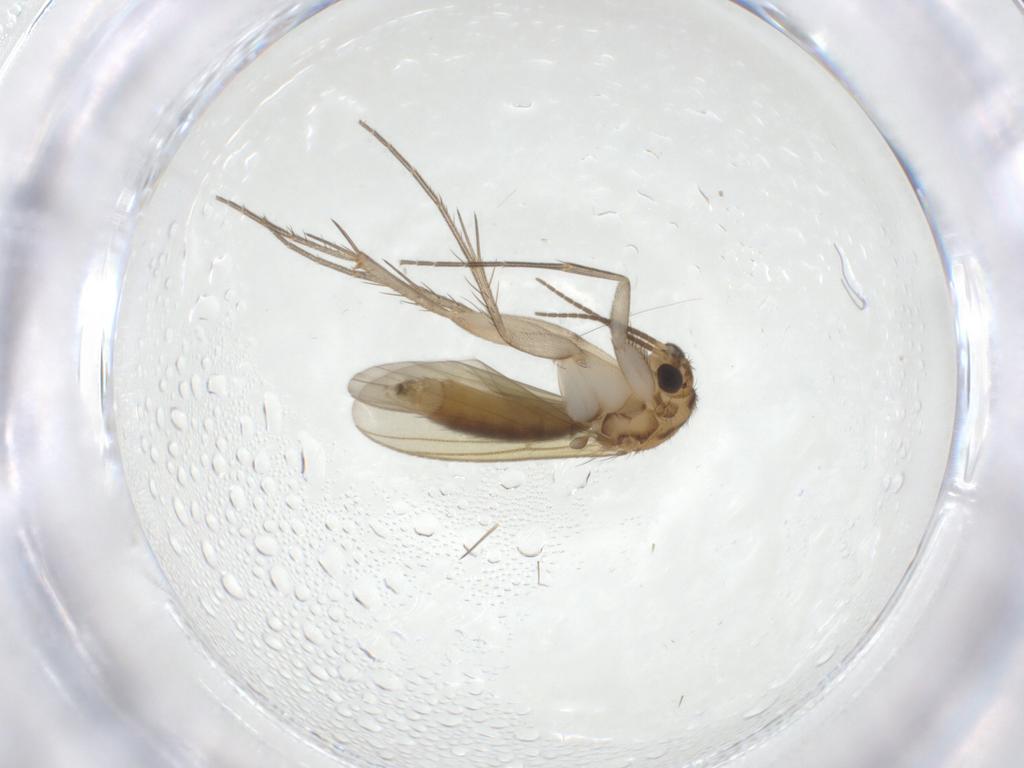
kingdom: Animalia
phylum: Arthropoda
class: Insecta
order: Diptera
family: Mycetophilidae
